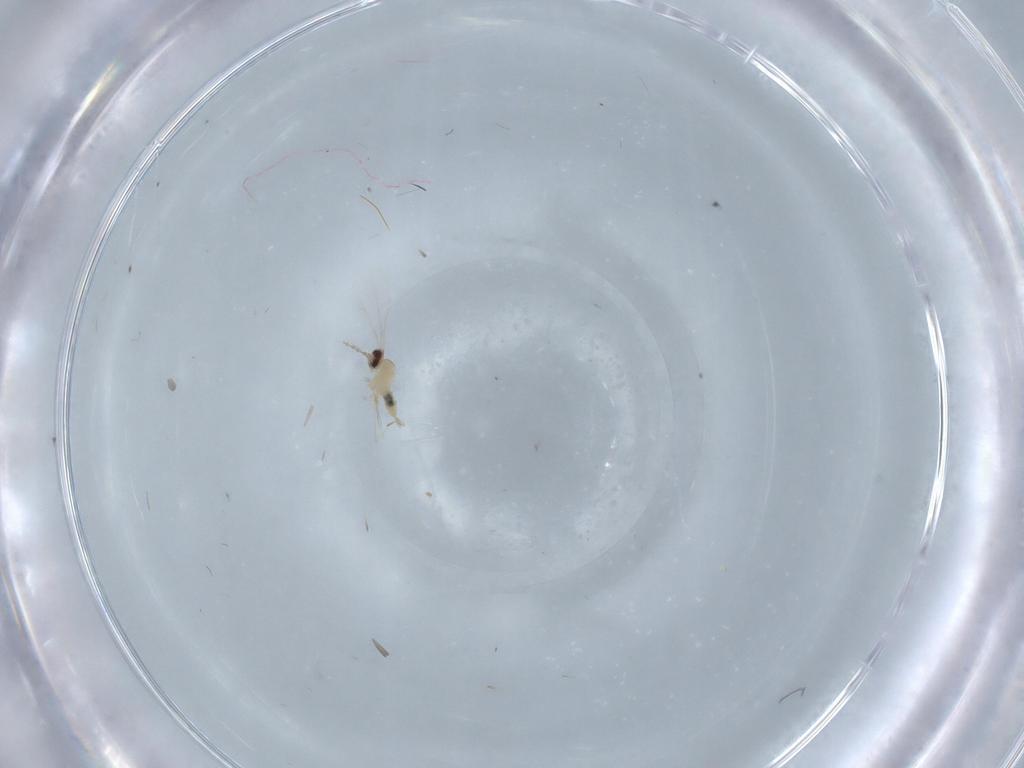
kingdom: Animalia
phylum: Arthropoda
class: Insecta
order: Diptera
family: Cecidomyiidae
